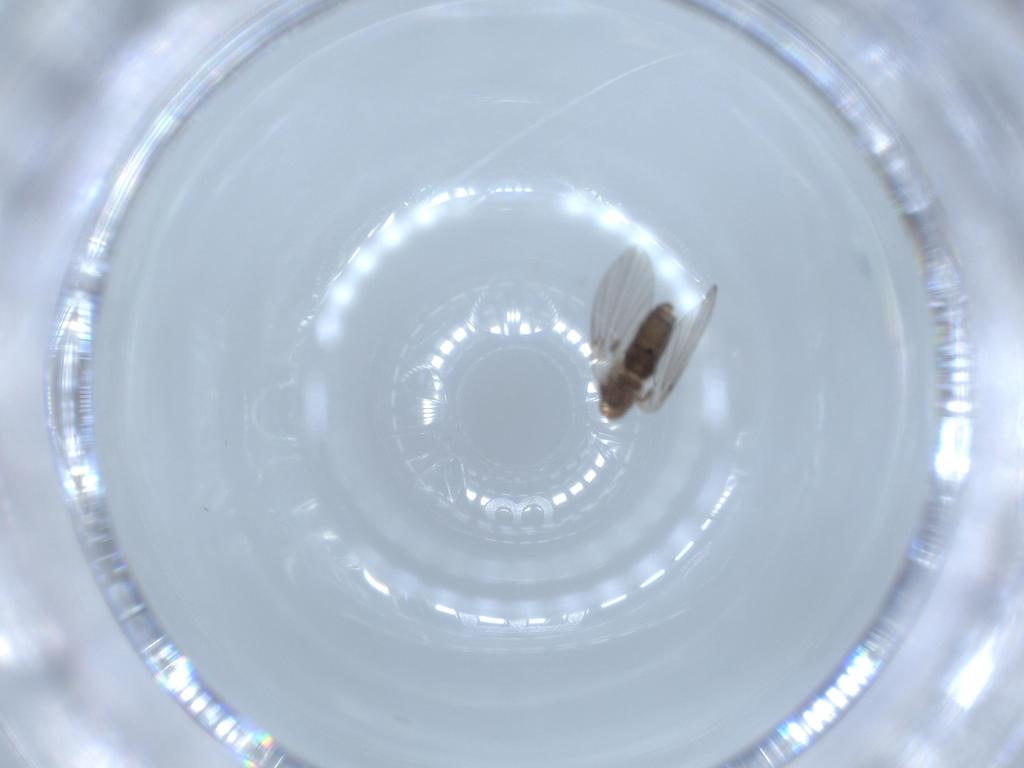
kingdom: Animalia
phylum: Arthropoda
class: Insecta
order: Diptera
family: Psychodidae
